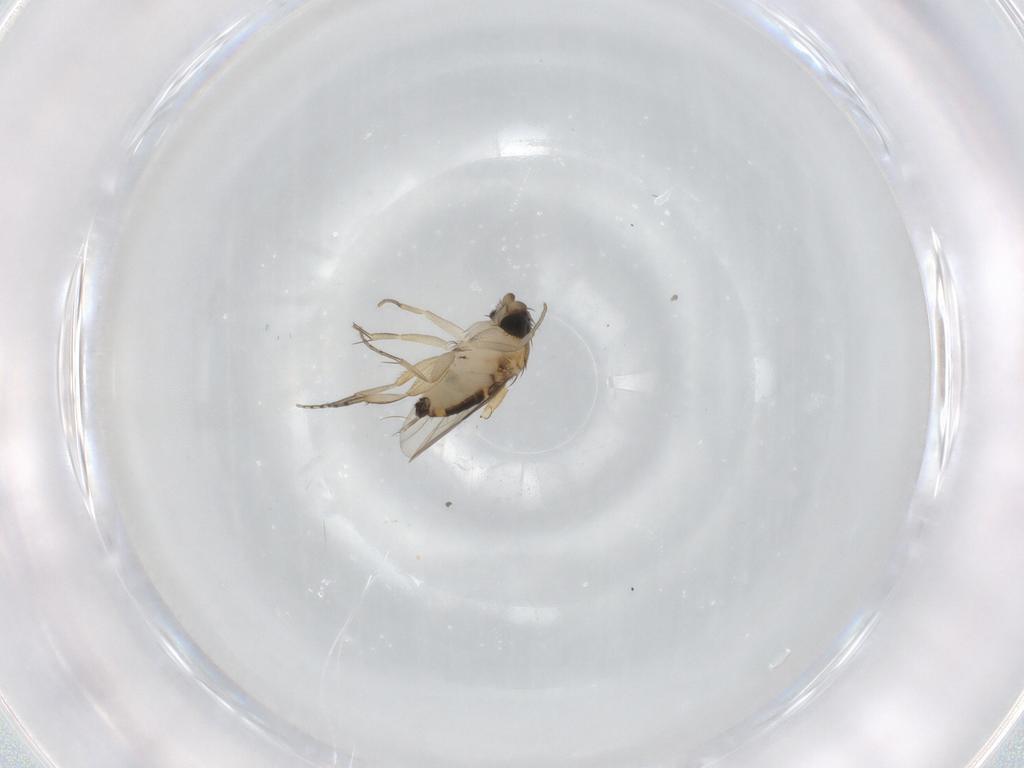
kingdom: Animalia
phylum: Arthropoda
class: Insecta
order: Diptera
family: Phoridae
